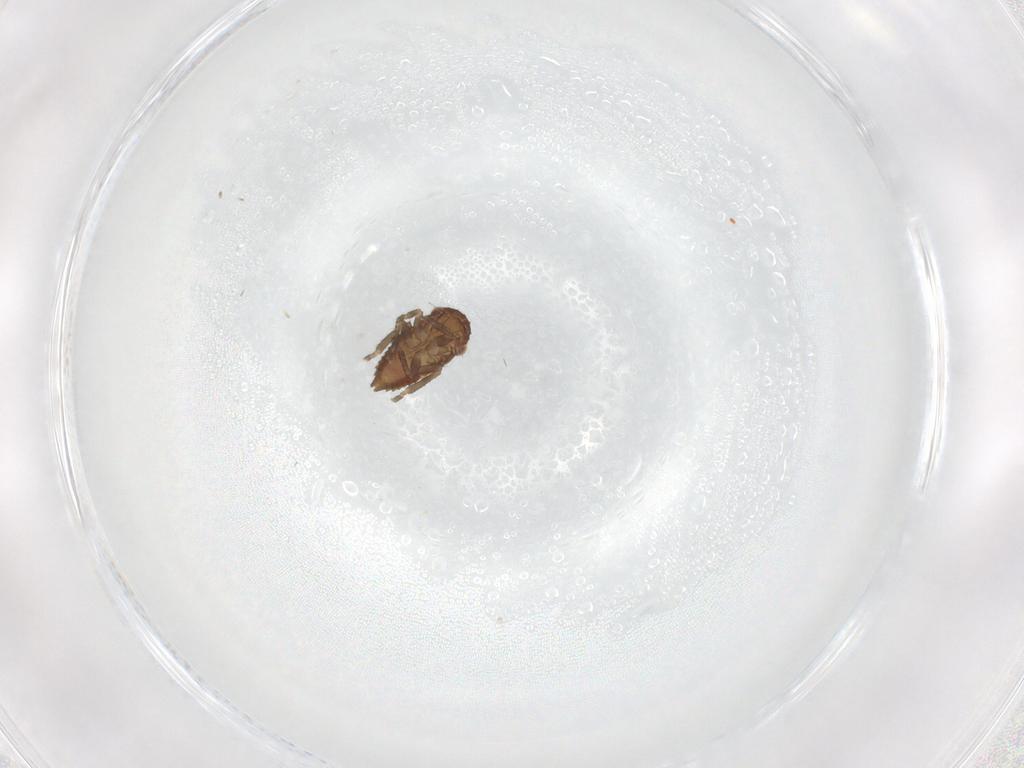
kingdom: Animalia
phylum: Arthropoda
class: Insecta
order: Hemiptera
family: Cicadellidae
